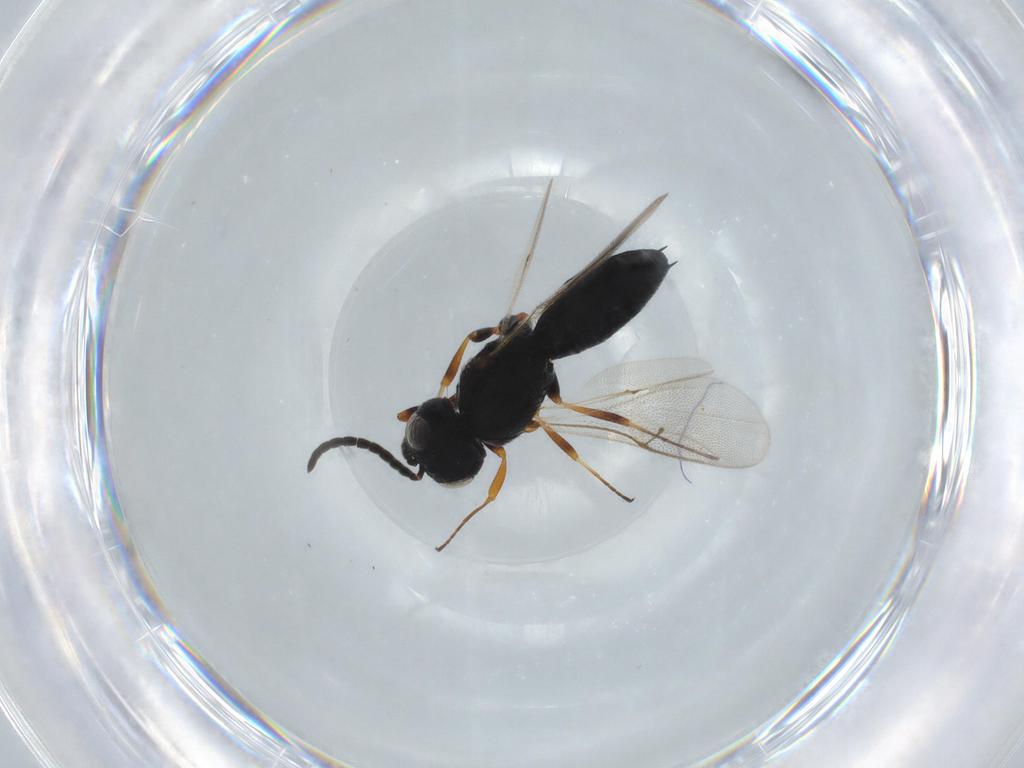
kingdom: Animalia
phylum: Arthropoda
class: Insecta
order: Hymenoptera
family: Scelionidae
